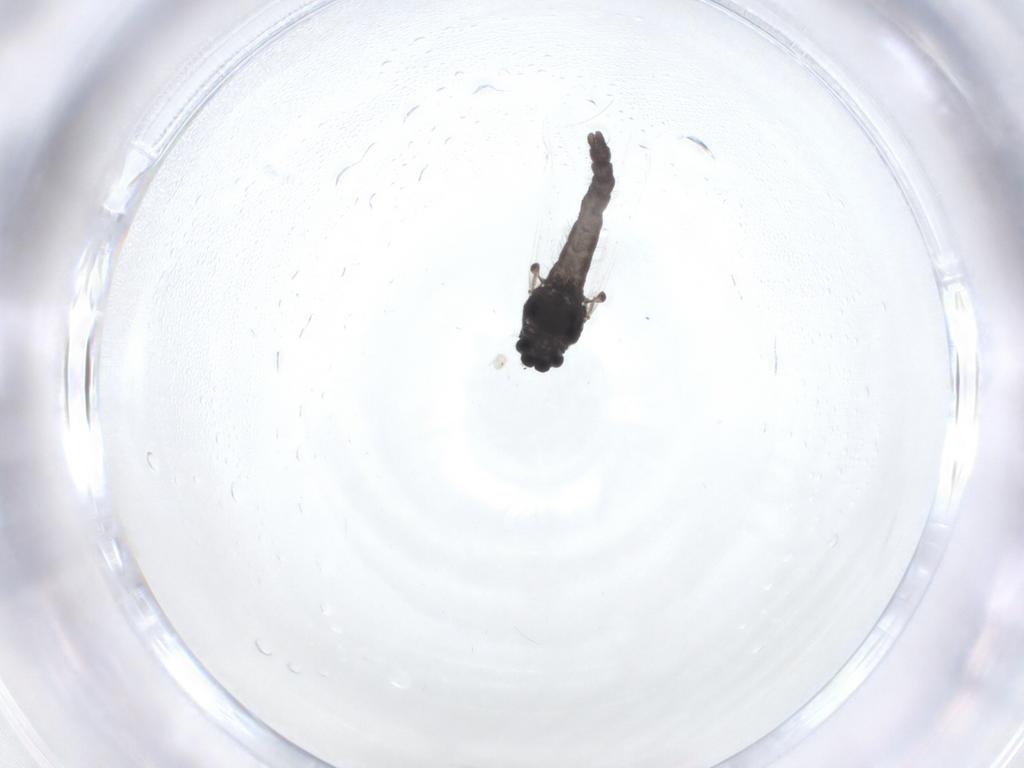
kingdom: Animalia
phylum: Arthropoda
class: Insecta
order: Diptera
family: Chironomidae
